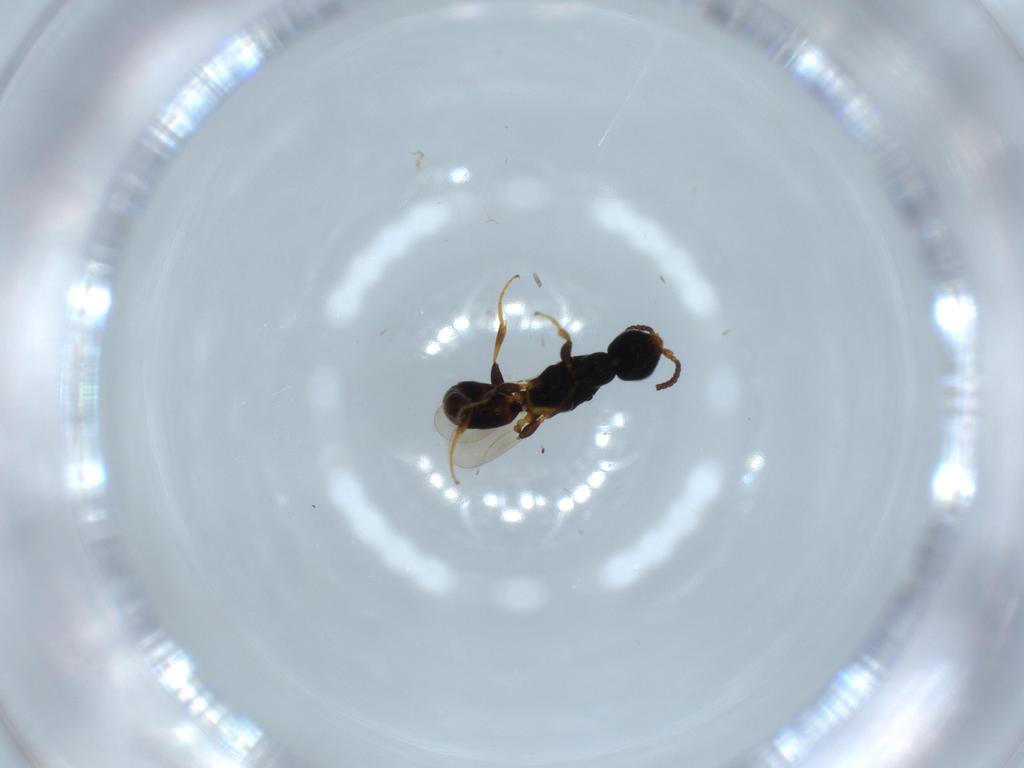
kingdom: Animalia
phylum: Arthropoda
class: Insecta
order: Hymenoptera
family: Bethylidae
